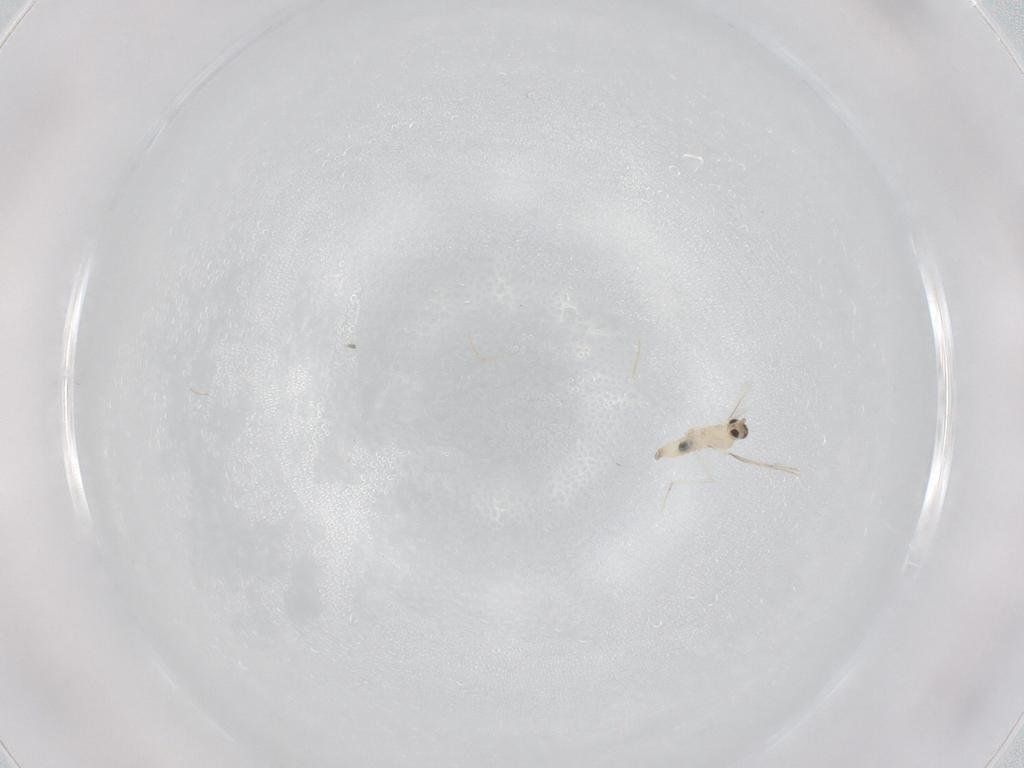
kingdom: Animalia
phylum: Arthropoda
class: Insecta
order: Diptera
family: Cecidomyiidae
